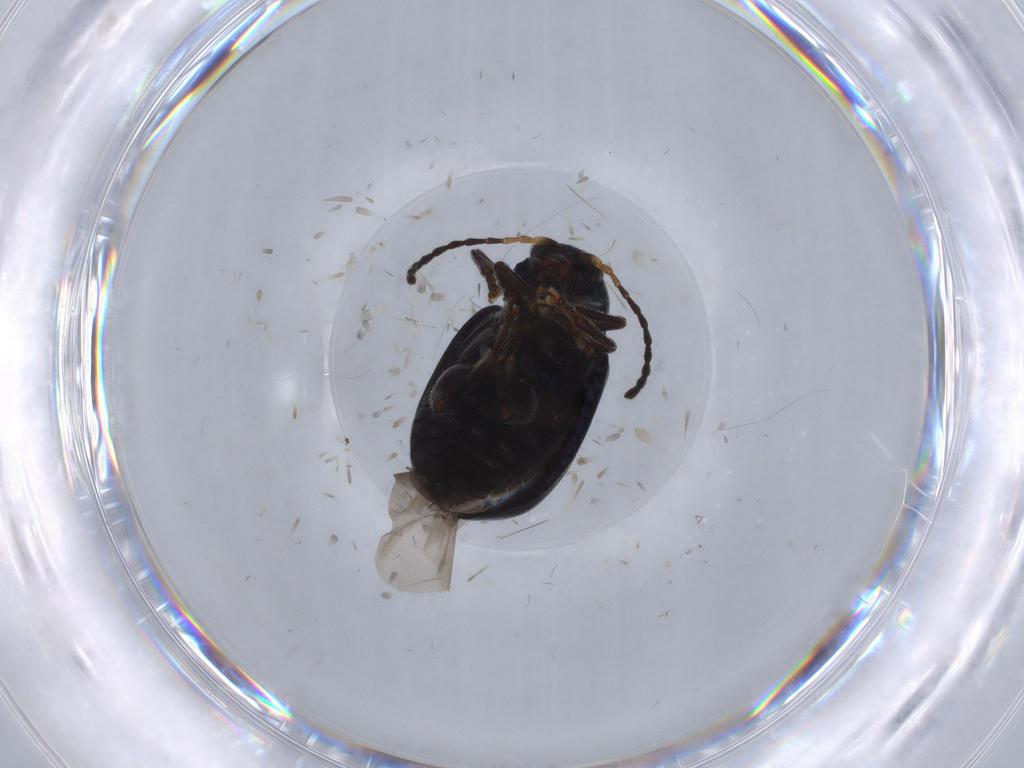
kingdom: Animalia
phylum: Arthropoda
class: Insecta
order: Coleoptera
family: Chrysomelidae
